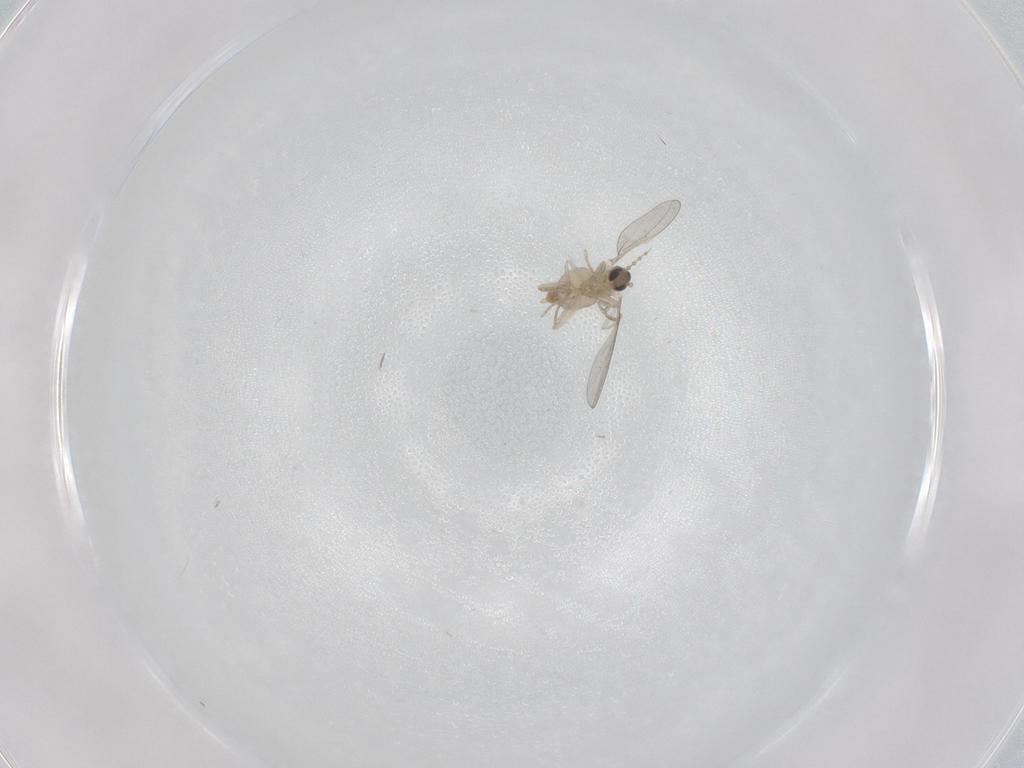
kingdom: Animalia
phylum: Arthropoda
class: Insecta
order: Diptera
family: Cecidomyiidae
